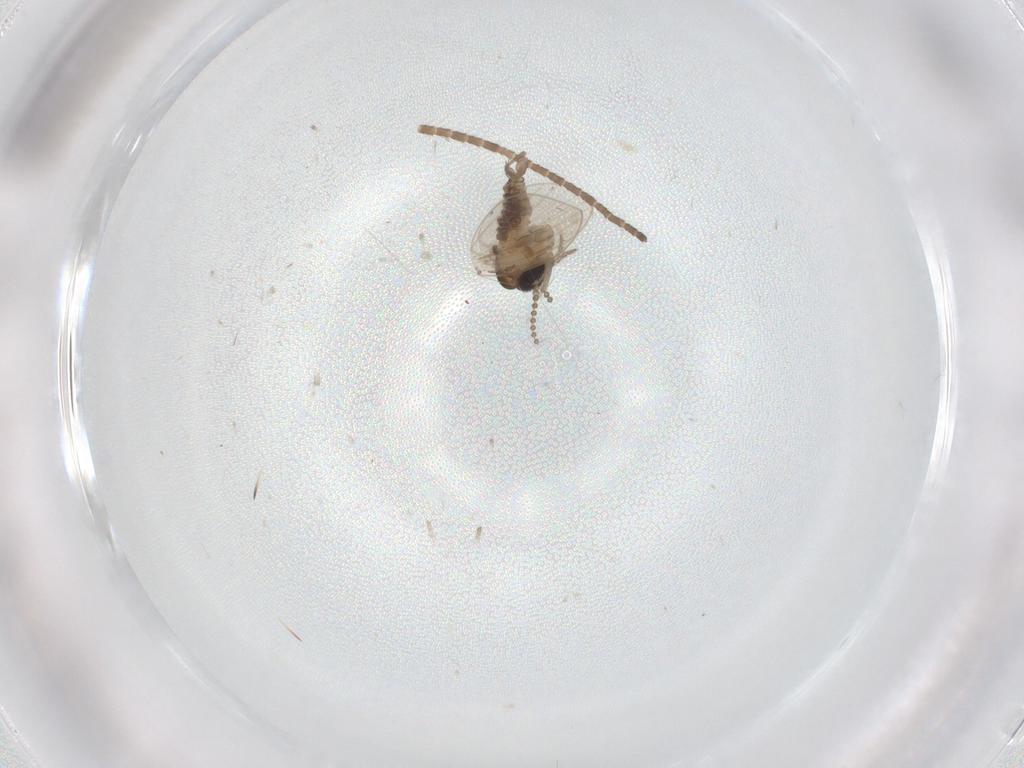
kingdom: Animalia
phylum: Arthropoda
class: Insecta
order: Diptera
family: Psychodidae
